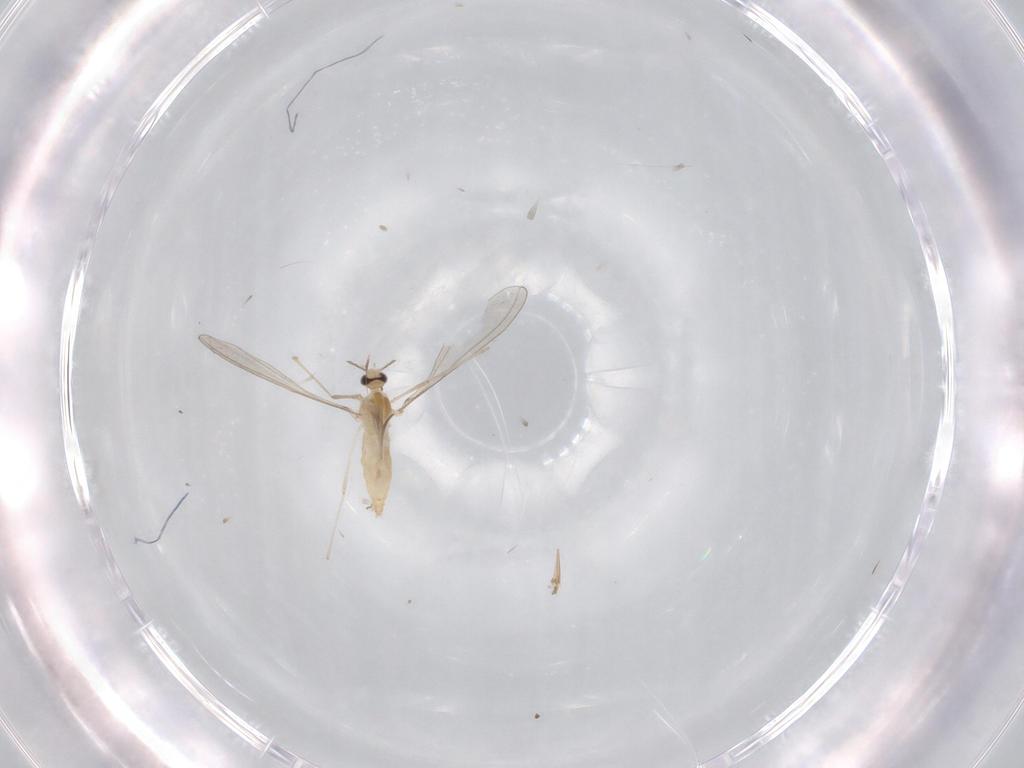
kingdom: Animalia
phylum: Arthropoda
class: Insecta
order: Diptera
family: Cecidomyiidae
